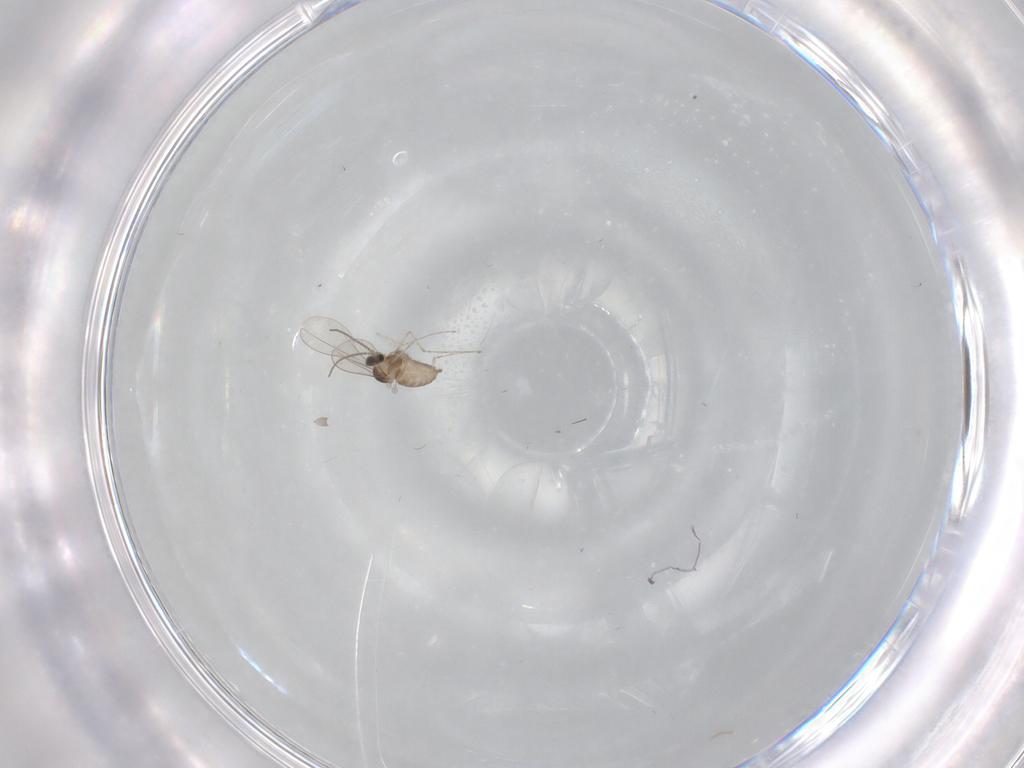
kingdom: Animalia
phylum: Arthropoda
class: Insecta
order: Diptera
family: Cecidomyiidae
